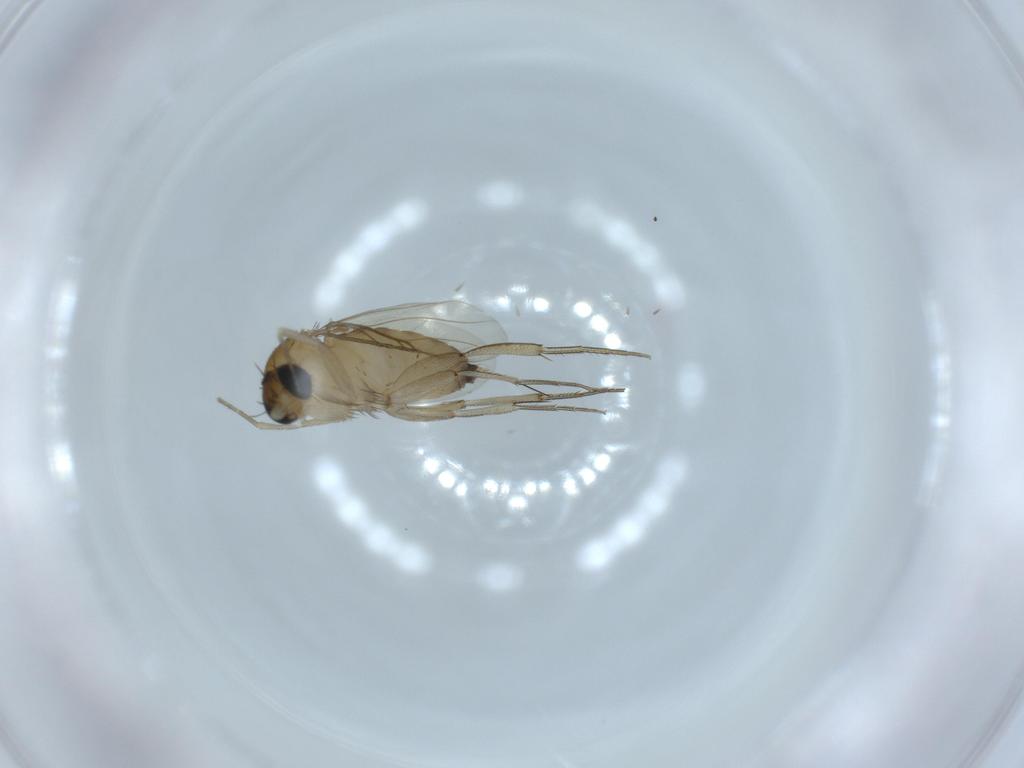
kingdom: Animalia
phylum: Arthropoda
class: Insecta
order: Diptera
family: Phoridae
